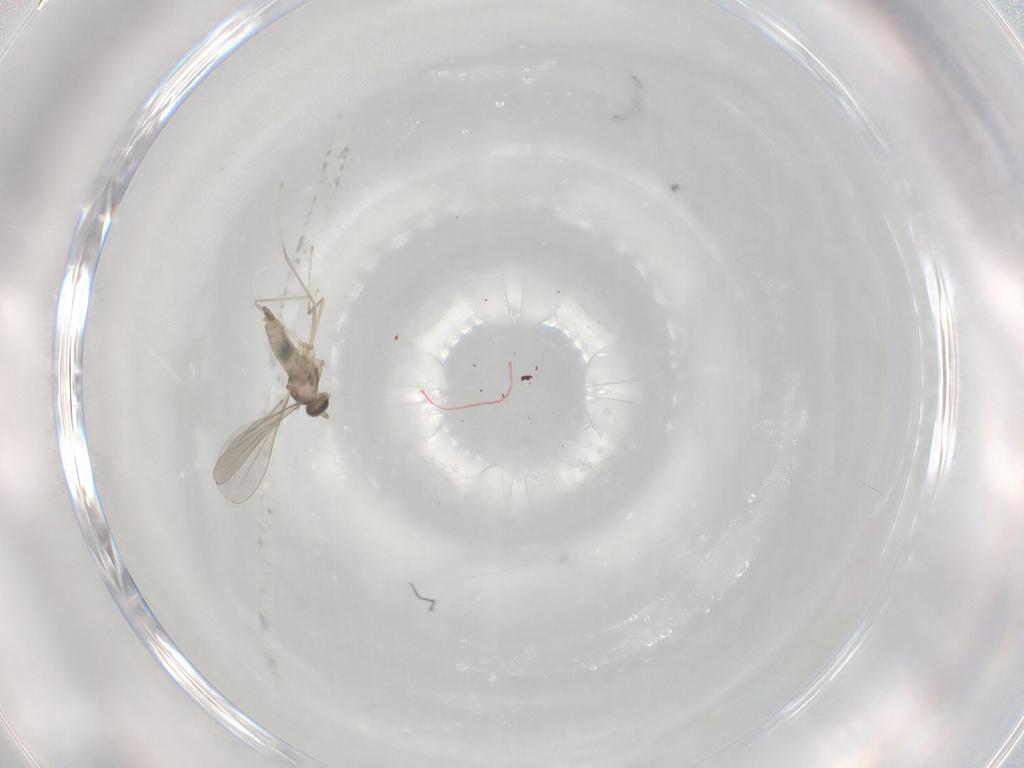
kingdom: Animalia
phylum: Arthropoda
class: Insecta
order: Diptera
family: Cecidomyiidae
